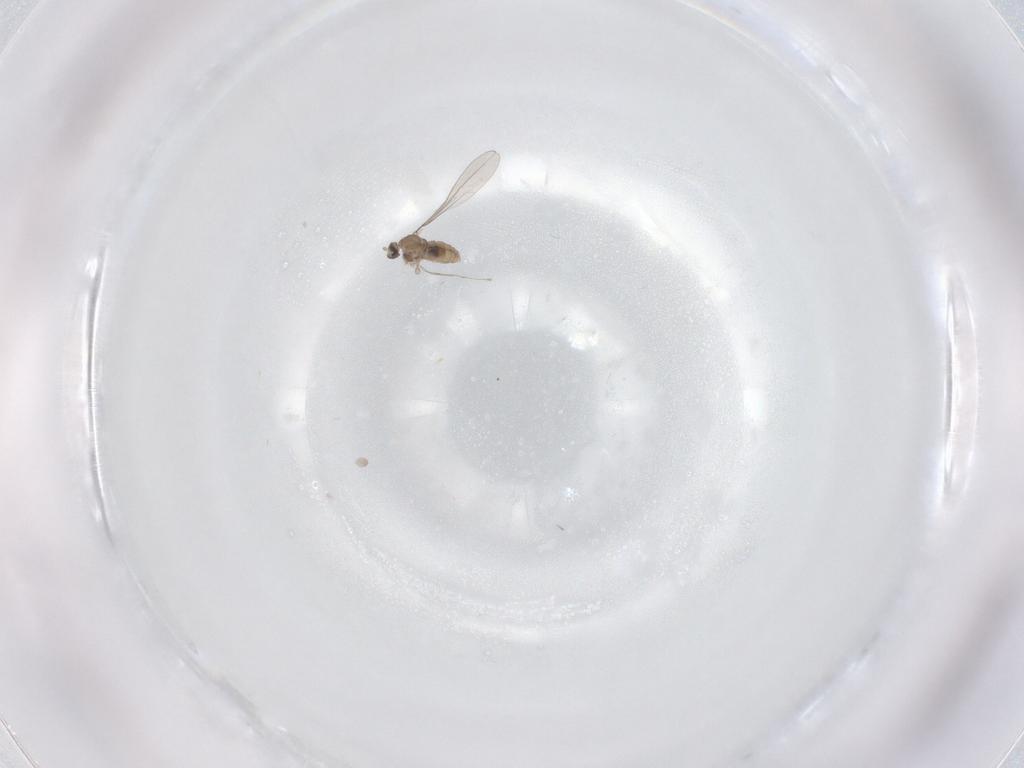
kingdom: Animalia
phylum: Arthropoda
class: Insecta
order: Diptera
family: Cecidomyiidae
